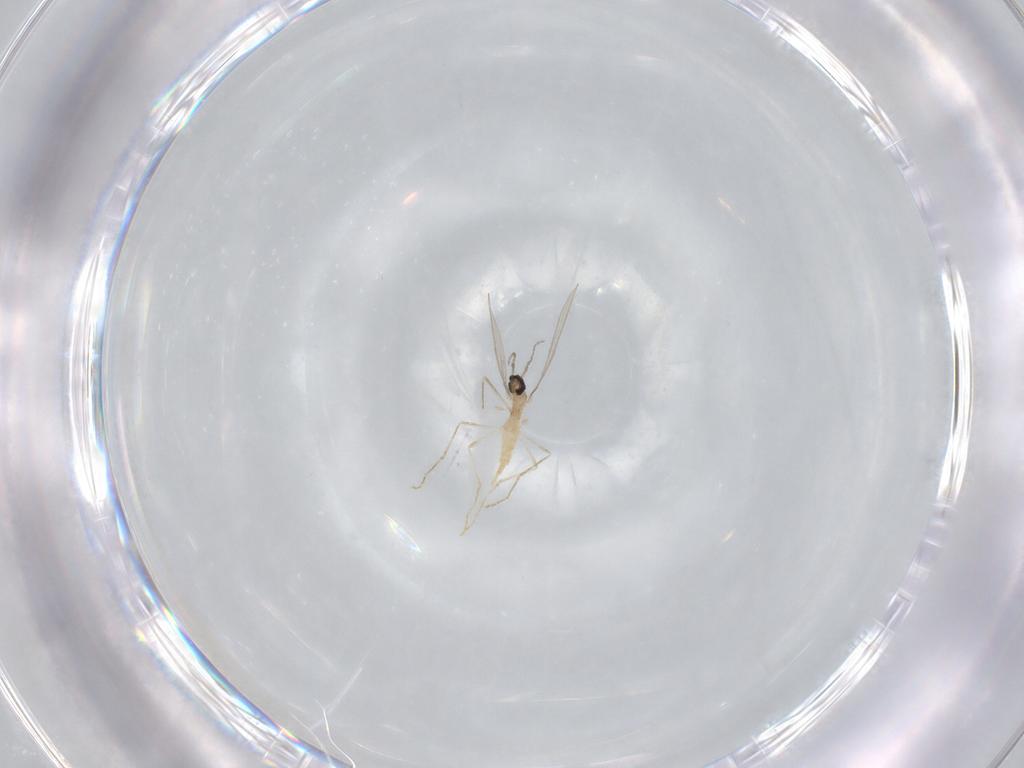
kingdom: Animalia
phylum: Arthropoda
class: Insecta
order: Diptera
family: Cecidomyiidae
